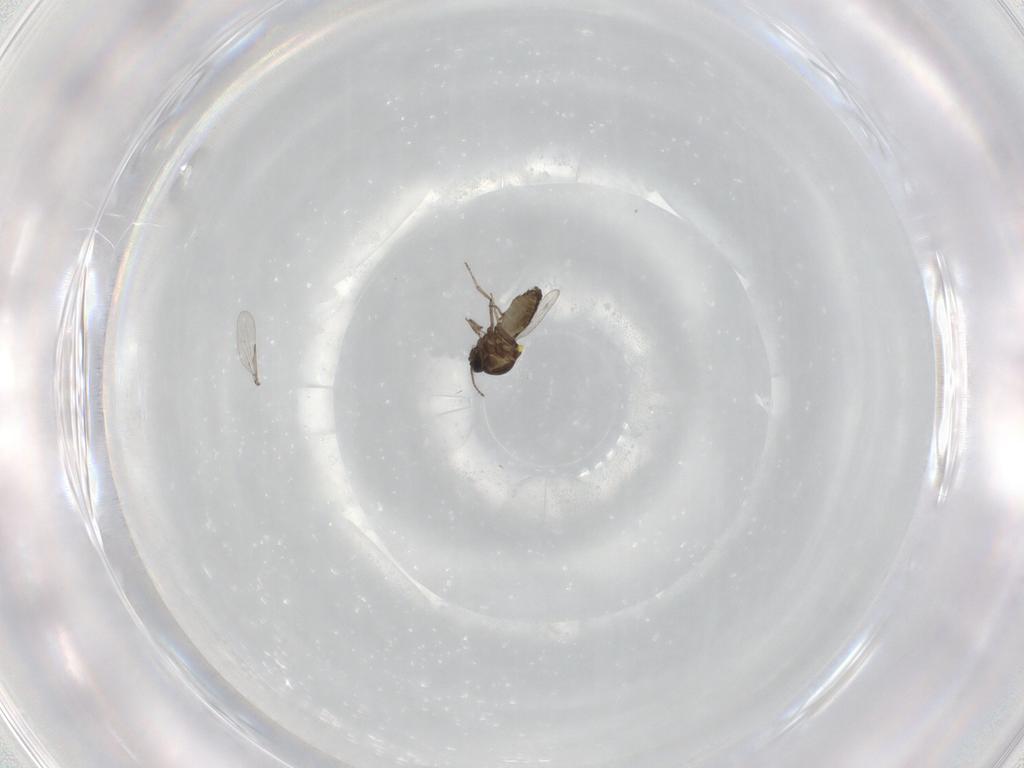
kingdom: Animalia
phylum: Arthropoda
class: Insecta
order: Diptera
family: Ceratopogonidae
